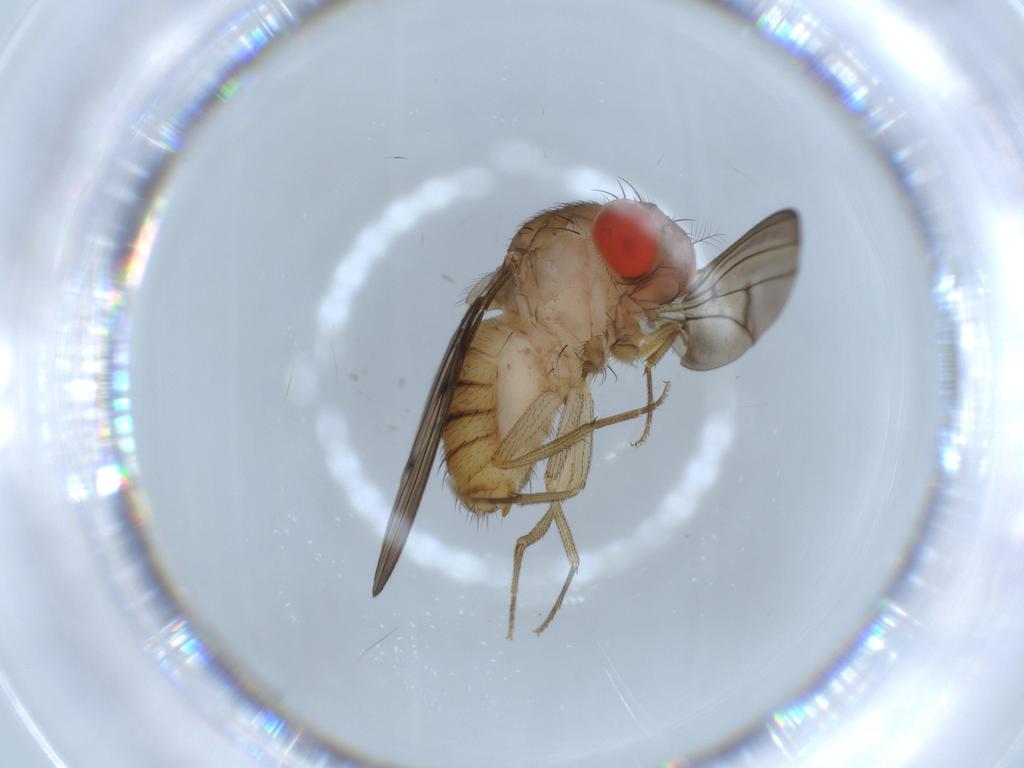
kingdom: Animalia
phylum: Arthropoda
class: Insecta
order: Diptera
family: Drosophilidae
